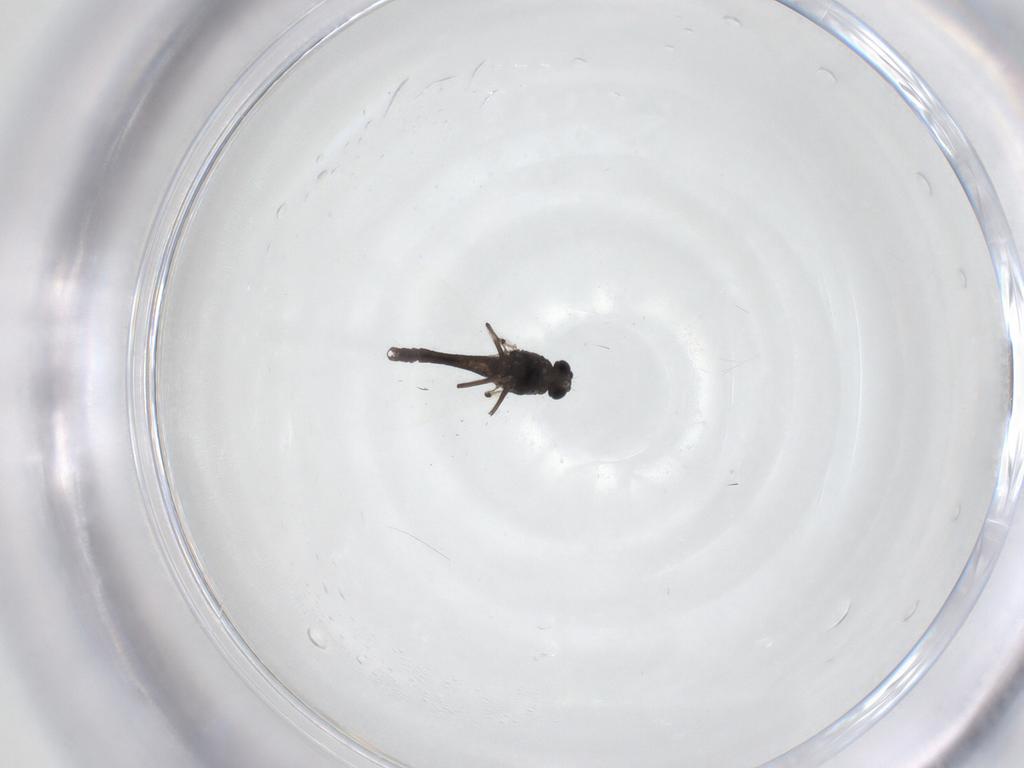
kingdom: Animalia
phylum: Arthropoda
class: Insecta
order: Diptera
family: Chironomidae
